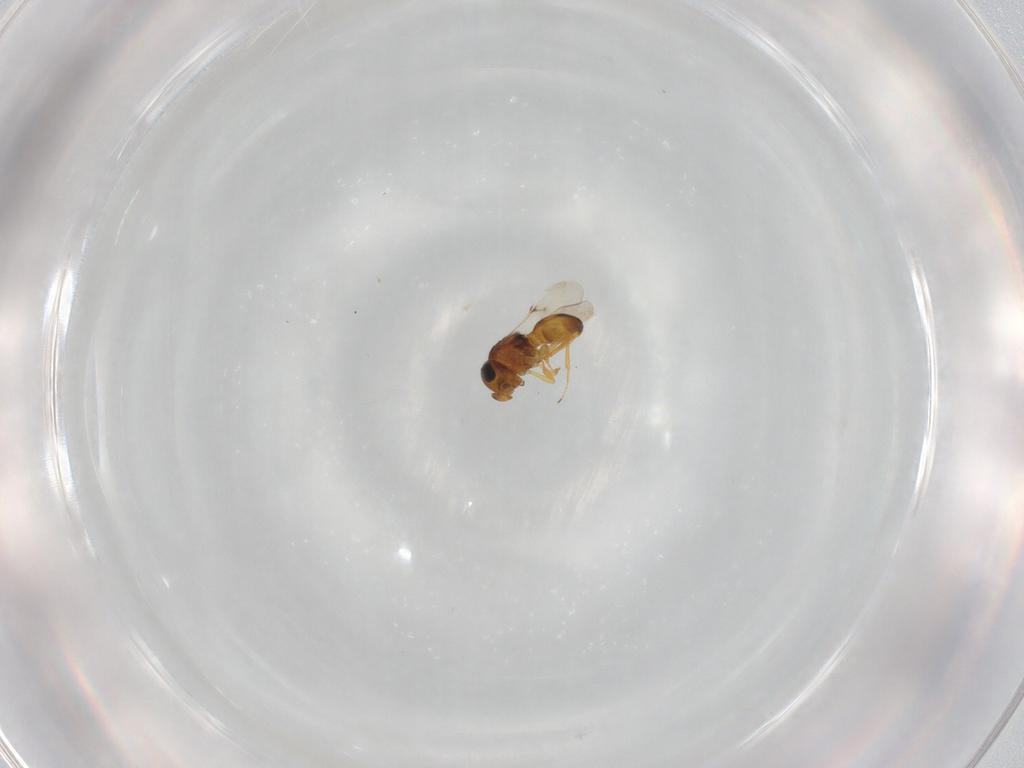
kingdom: Animalia
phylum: Arthropoda
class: Insecta
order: Hymenoptera
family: Scelionidae
